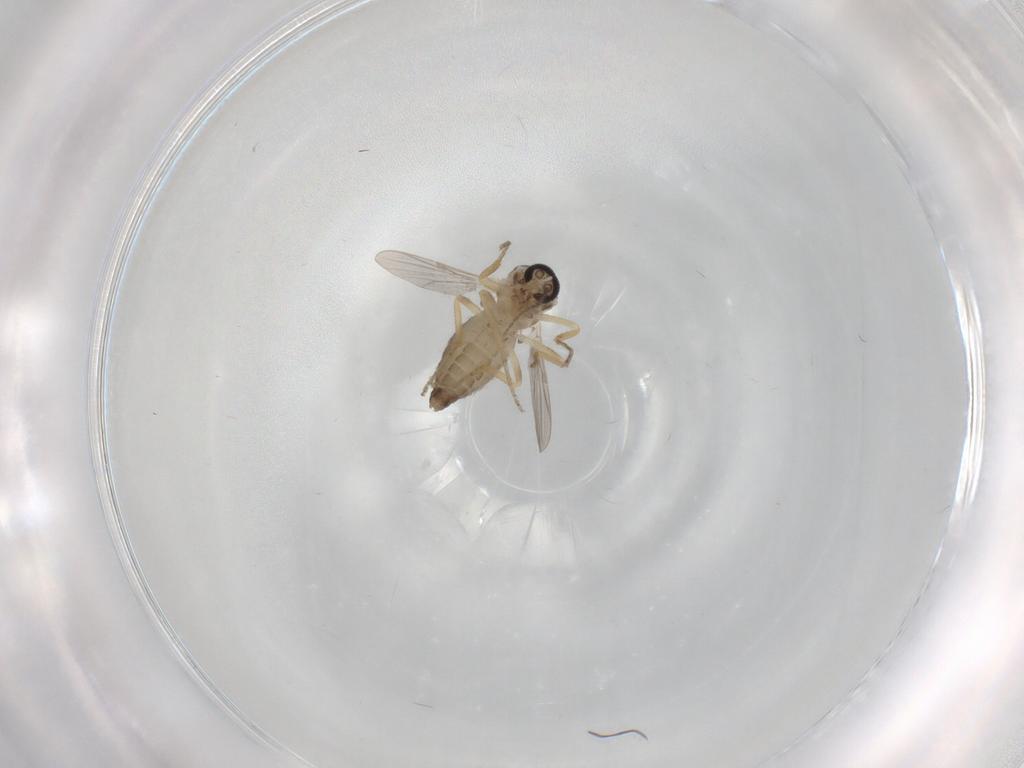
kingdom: Animalia
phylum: Arthropoda
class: Insecta
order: Diptera
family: Ceratopogonidae
